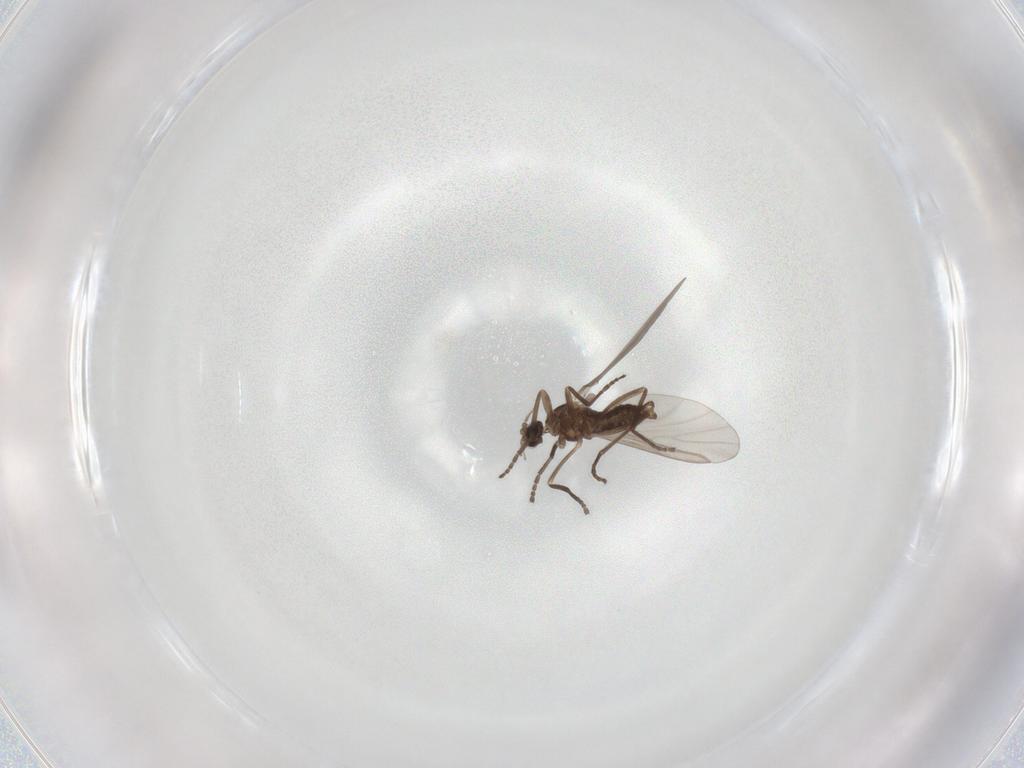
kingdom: Animalia
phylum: Arthropoda
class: Insecta
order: Diptera
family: Cecidomyiidae
